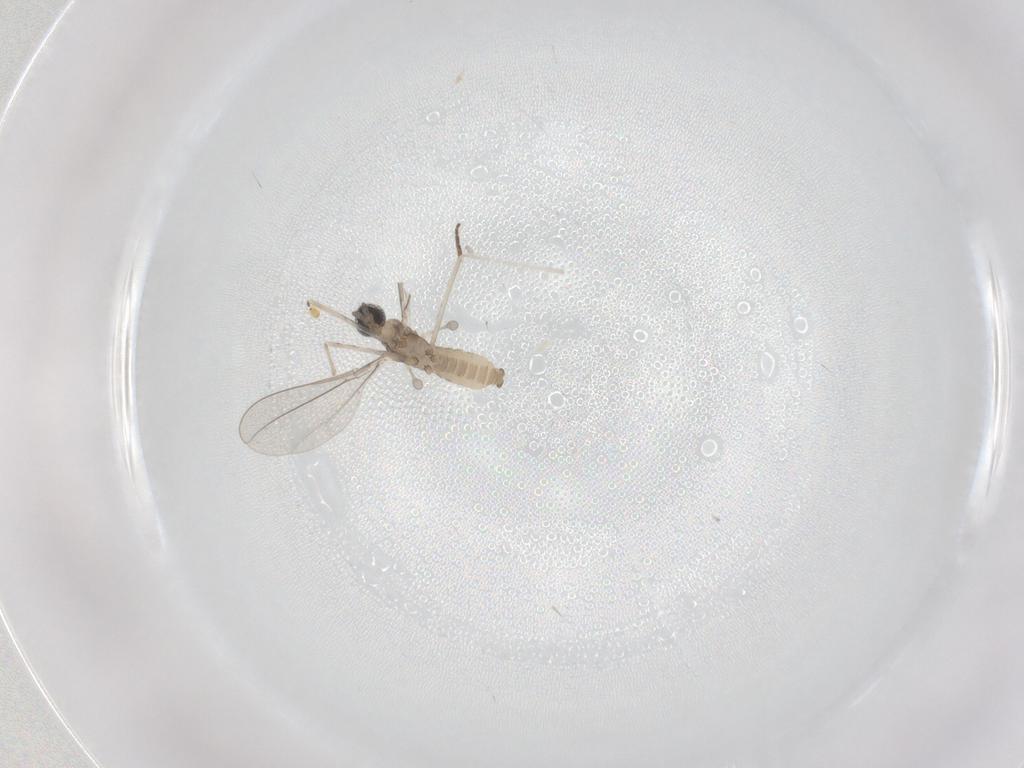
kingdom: Animalia
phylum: Arthropoda
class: Insecta
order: Diptera
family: Cecidomyiidae
